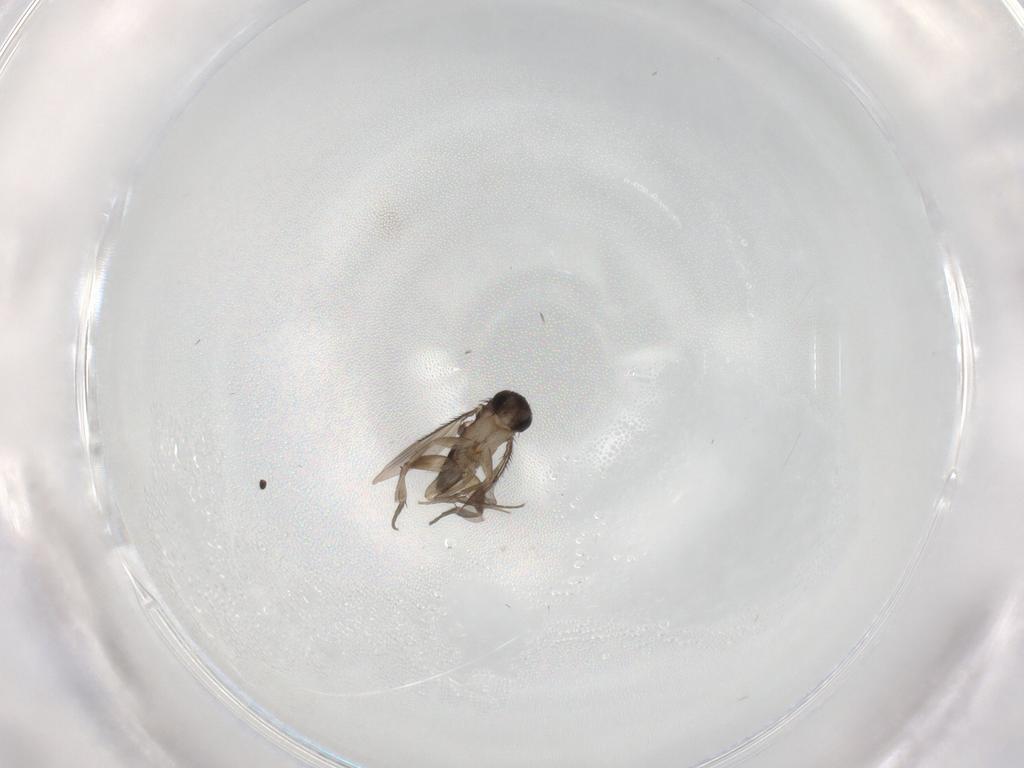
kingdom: Animalia
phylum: Arthropoda
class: Insecta
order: Diptera
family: Phoridae
